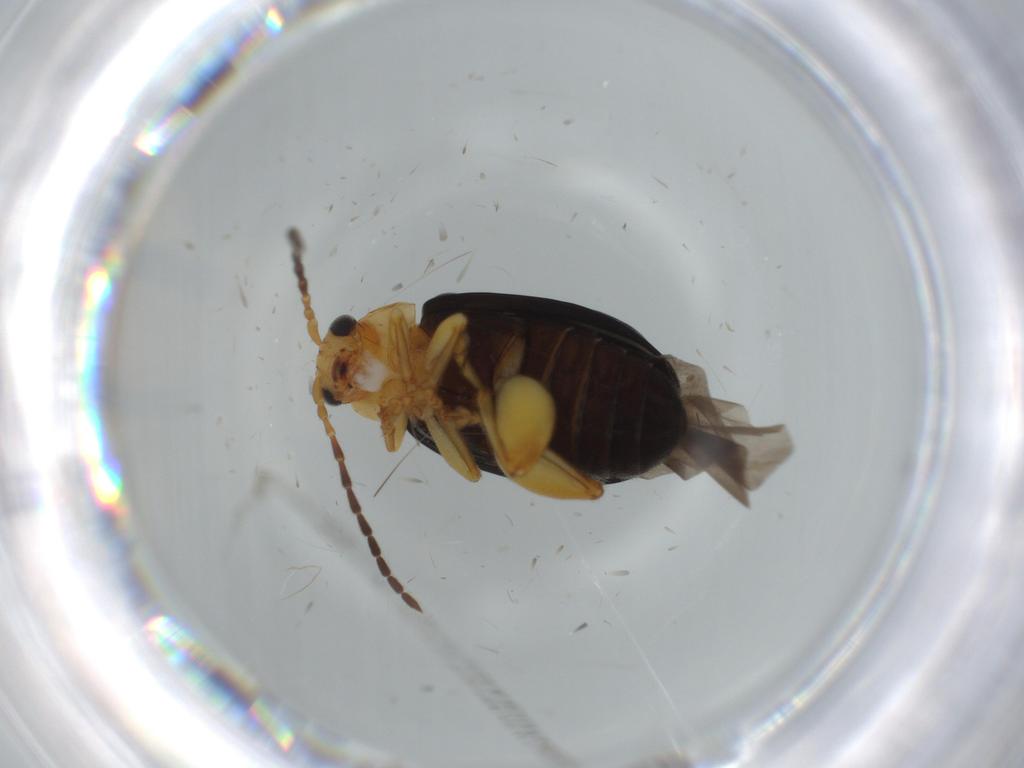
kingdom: Animalia
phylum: Arthropoda
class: Insecta
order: Coleoptera
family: Chrysomelidae
